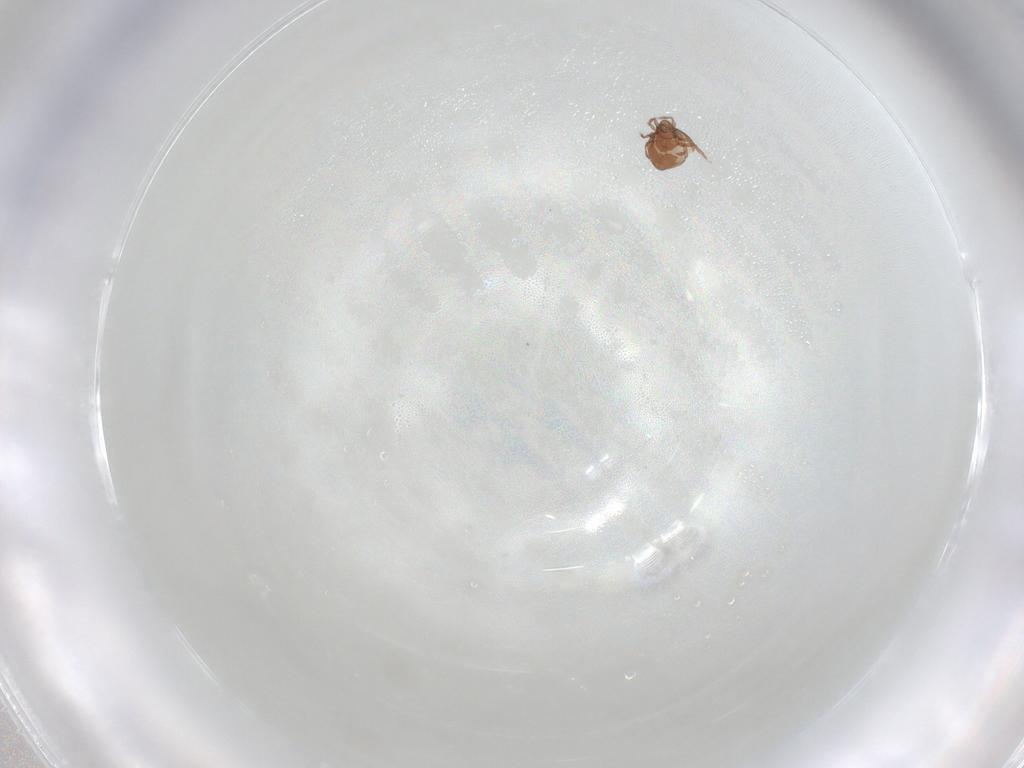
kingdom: Animalia
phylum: Arthropoda
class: Arachnida
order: Sarcoptiformes
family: Oribatulidae
